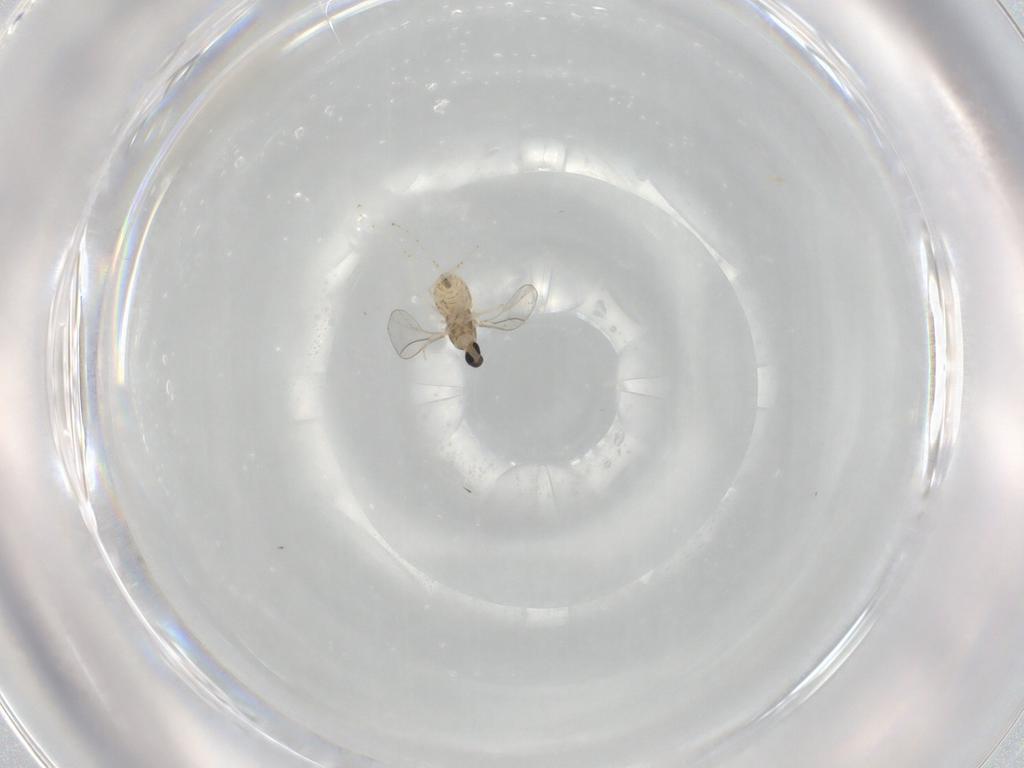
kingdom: Animalia
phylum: Arthropoda
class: Insecta
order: Diptera
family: Cecidomyiidae
